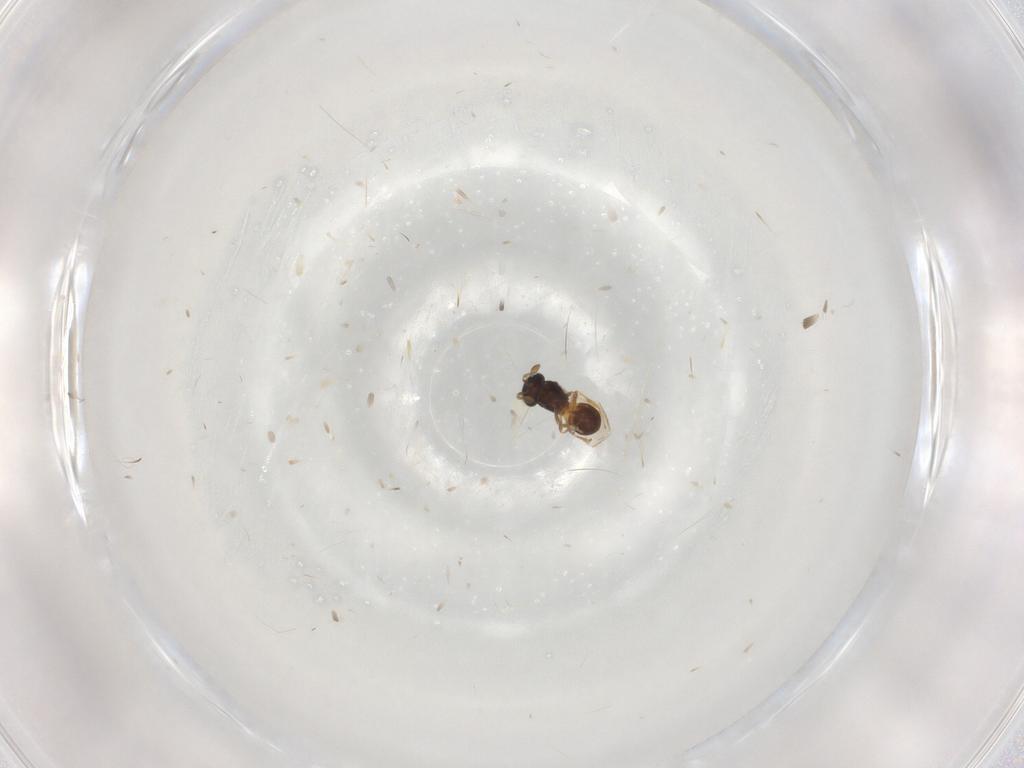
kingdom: Animalia
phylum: Arthropoda
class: Insecta
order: Hymenoptera
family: Scelionidae
